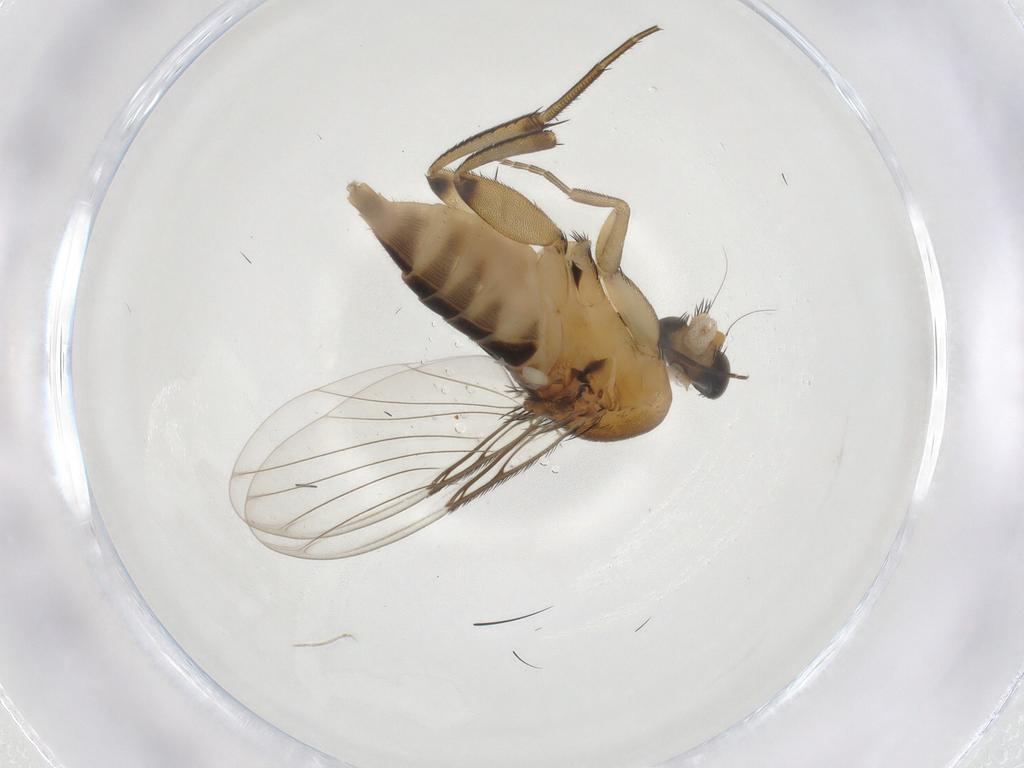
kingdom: Animalia
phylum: Arthropoda
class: Insecta
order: Diptera
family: Phoridae
